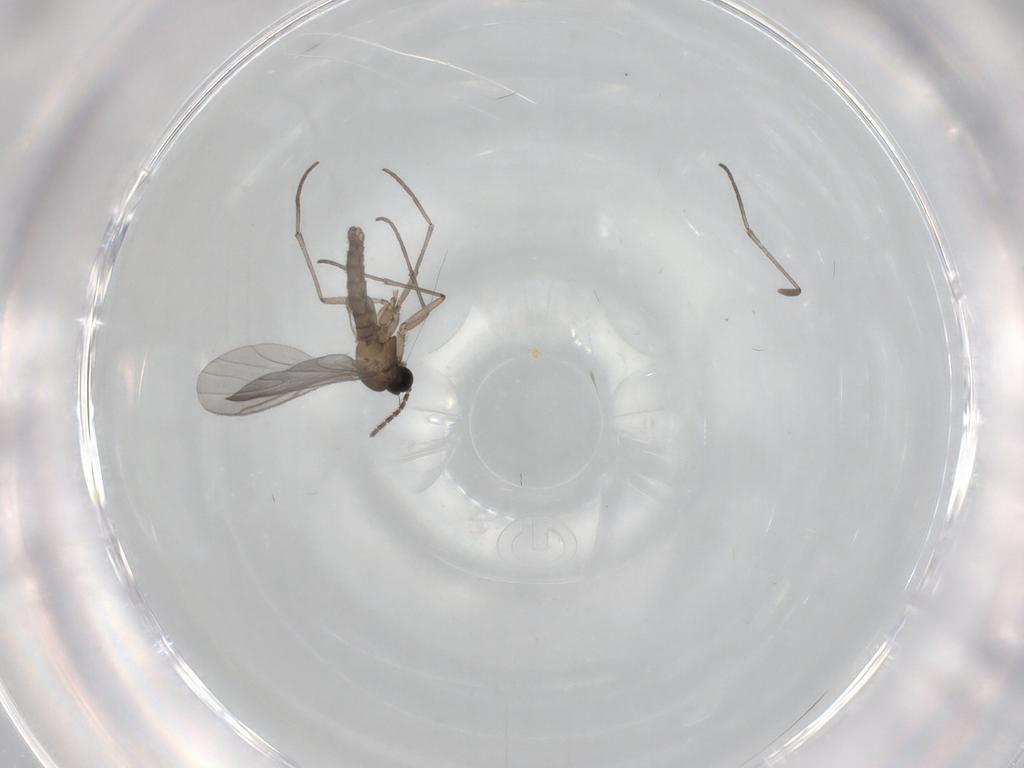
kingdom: Animalia
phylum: Arthropoda
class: Insecta
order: Diptera
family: Ceratopogonidae
